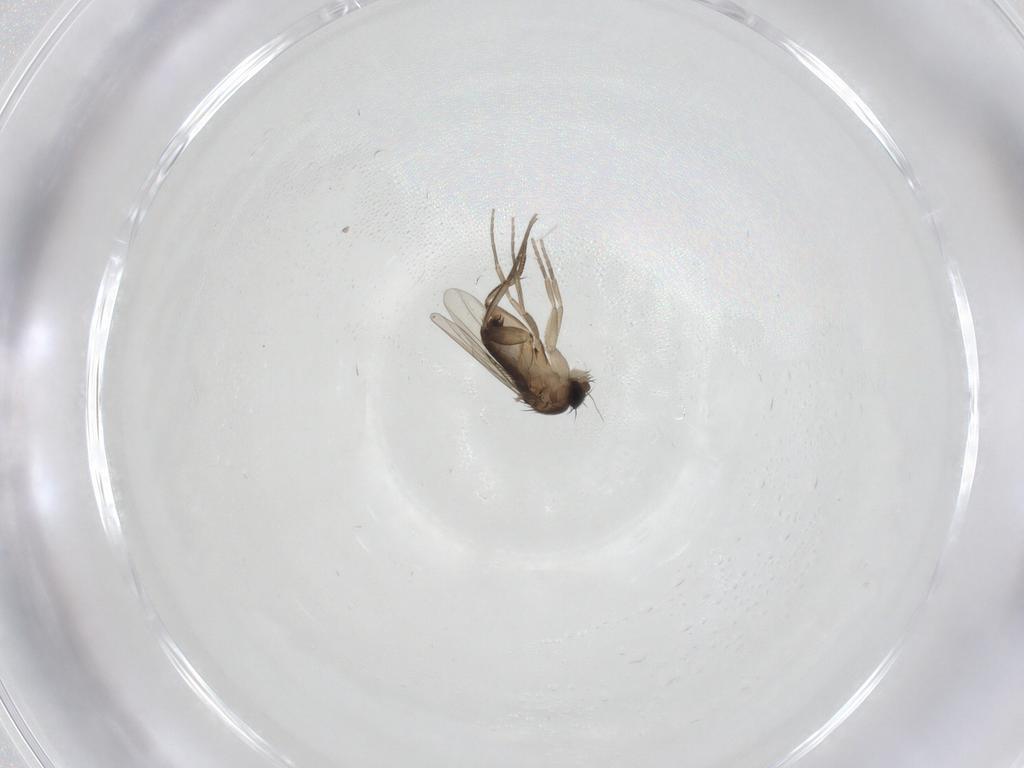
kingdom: Animalia
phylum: Arthropoda
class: Insecta
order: Diptera
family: Phoridae
